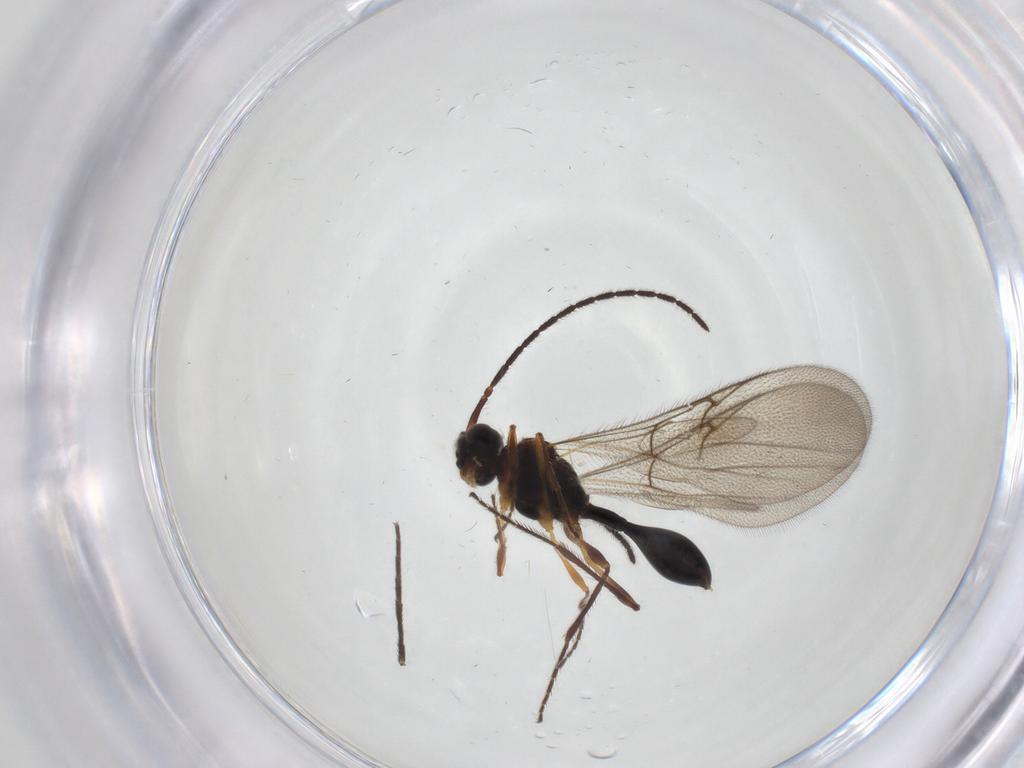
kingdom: Animalia
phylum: Arthropoda
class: Insecta
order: Hymenoptera
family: Diapriidae
